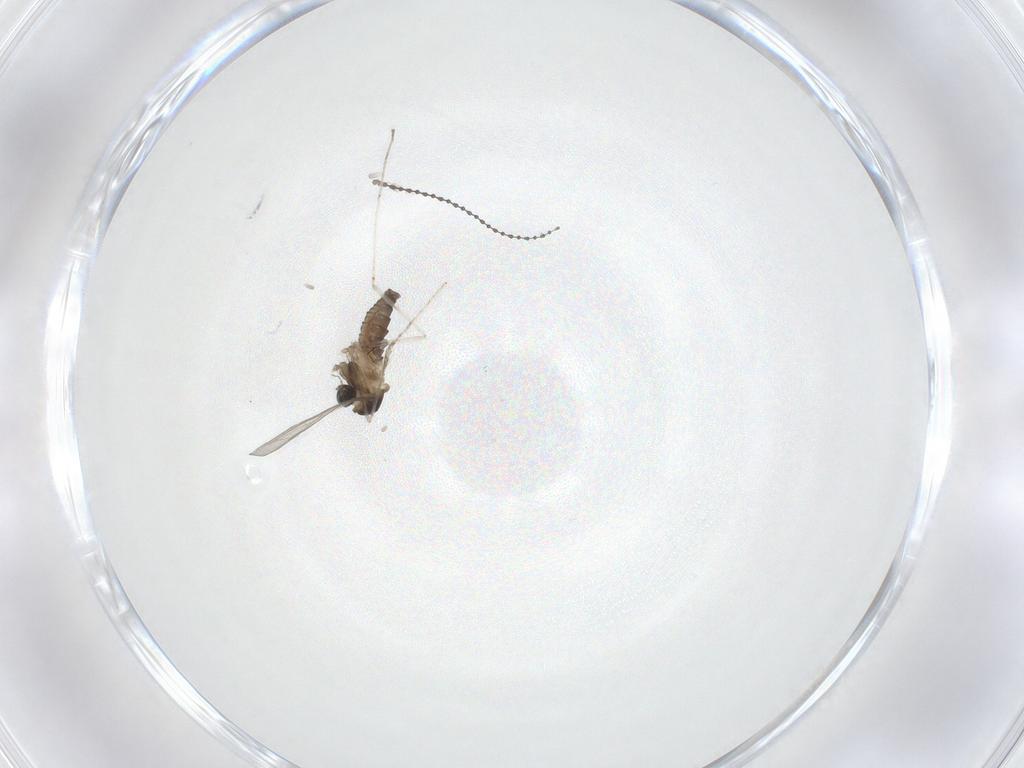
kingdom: Animalia
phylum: Arthropoda
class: Insecta
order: Diptera
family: Cecidomyiidae
